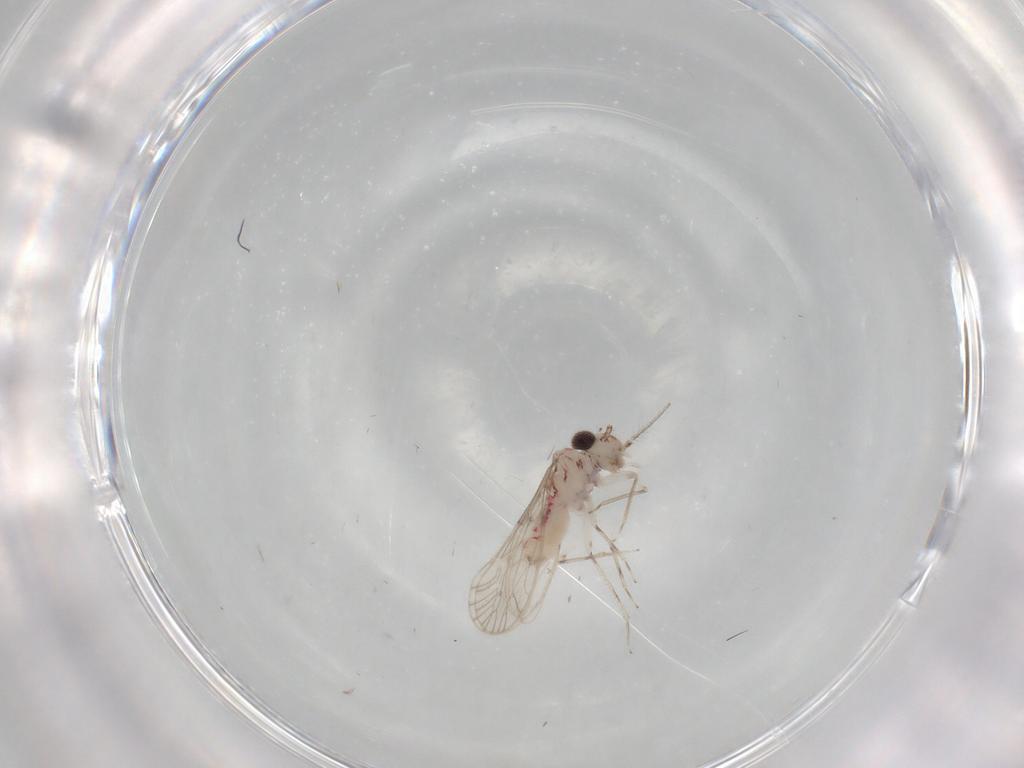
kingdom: Animalia
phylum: Arthropoda
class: Insecta
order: Psocodea
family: Caeciliusidae
